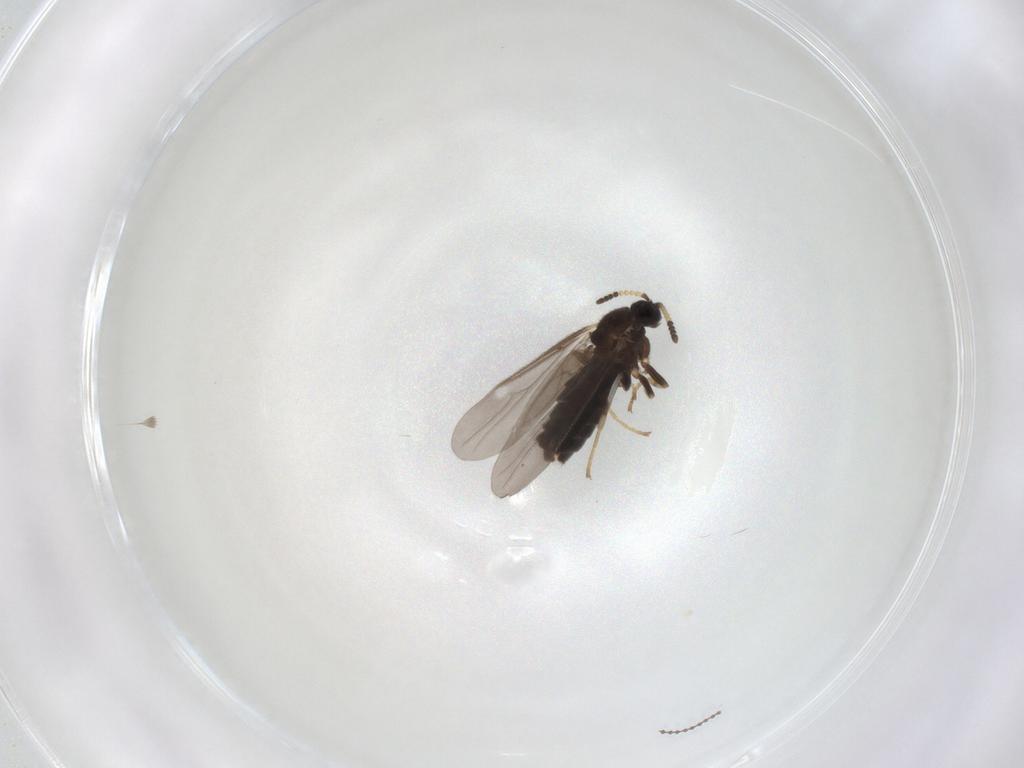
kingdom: Animalia
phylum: Arthropoda
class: Insecta
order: Diptera
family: Scatopsidae
